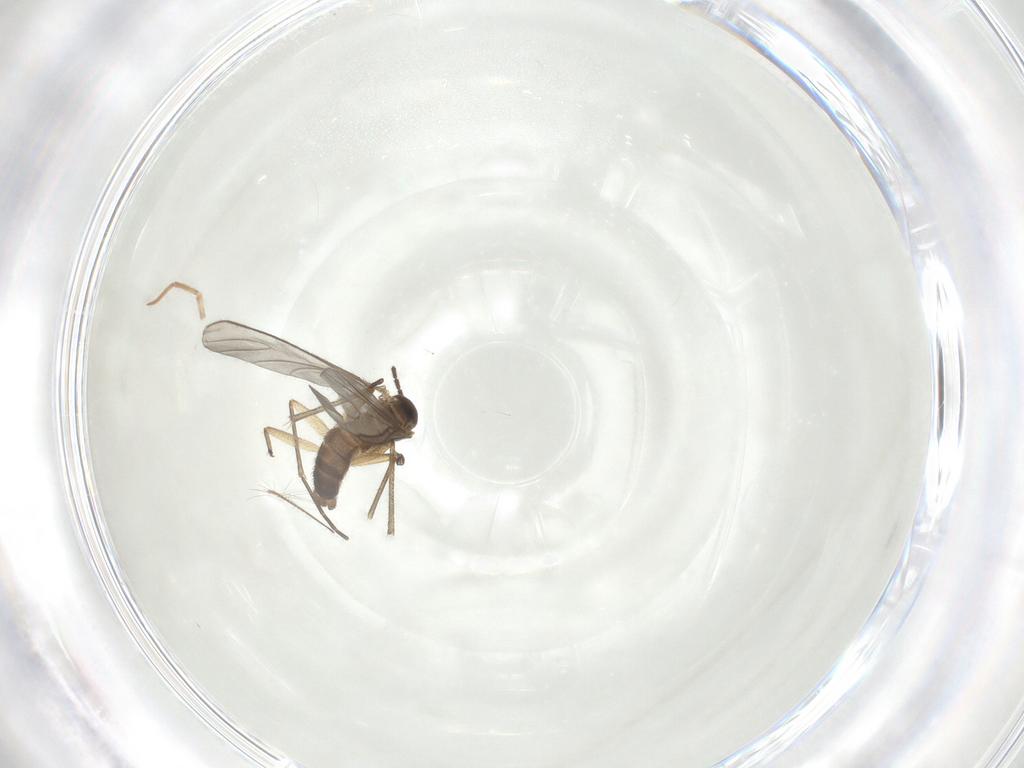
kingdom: Animalia
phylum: Arthropoda
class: Insecta
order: Diptera
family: Sciaridae
